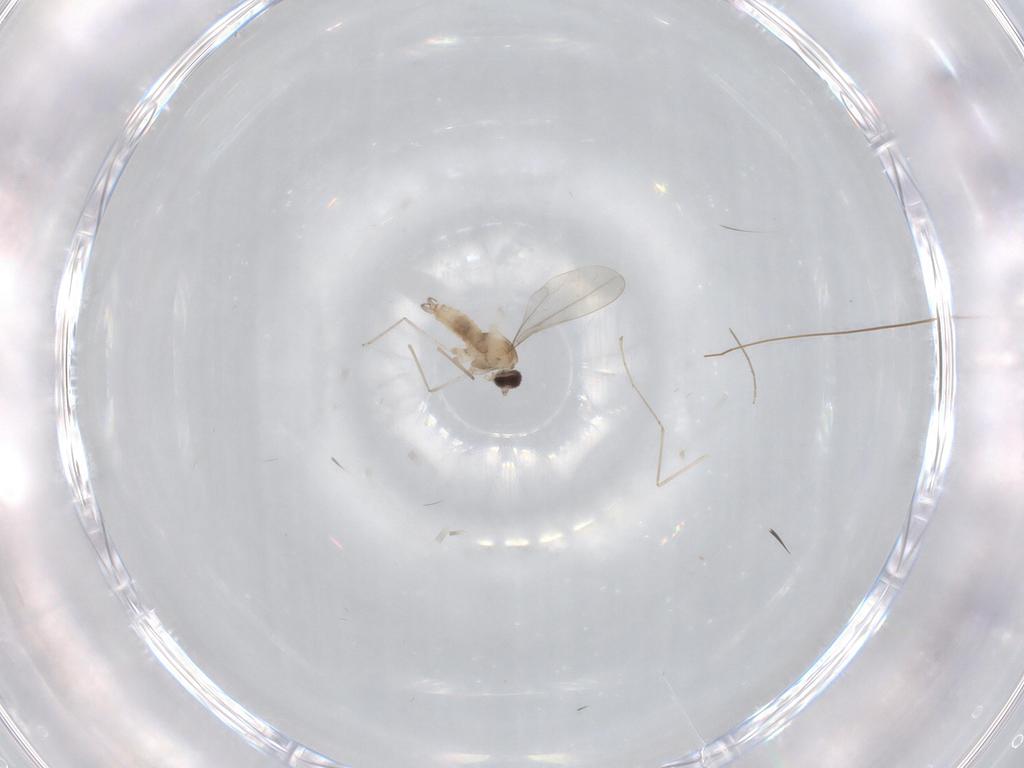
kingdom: Animalia
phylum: Arthropoda
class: Insecta
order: Diptera
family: Cecidomyiidae
